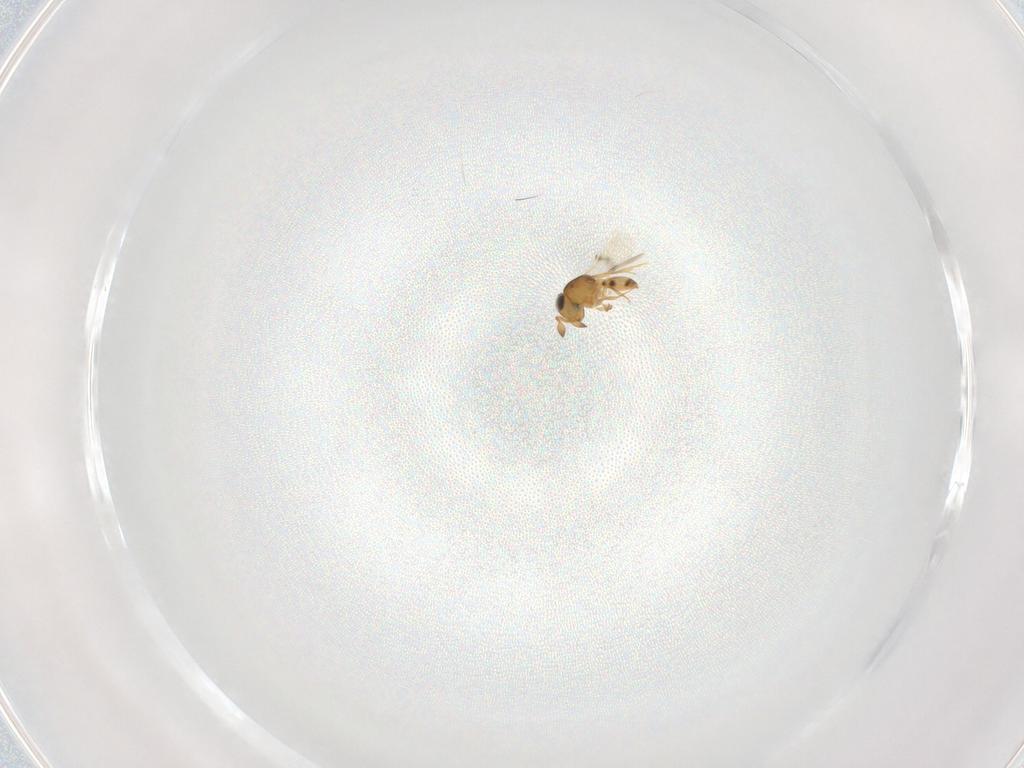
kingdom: Animalia
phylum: Arthropoda
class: Insecta
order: Hymenoptera
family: Scelionidae
